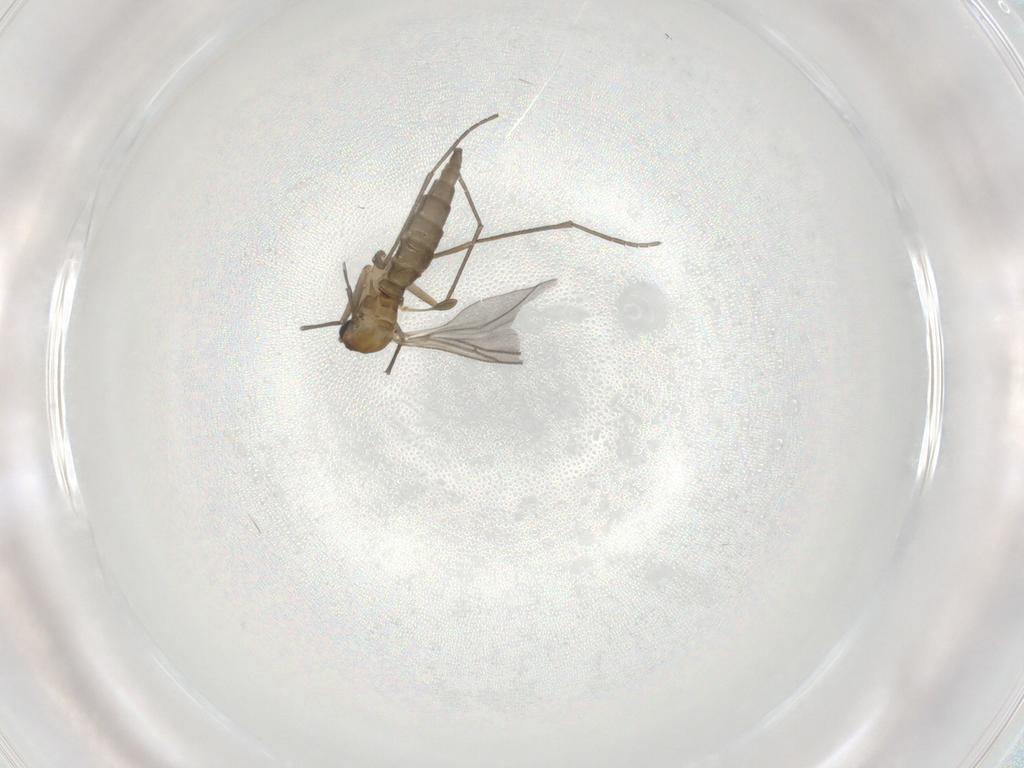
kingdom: Animalia
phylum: Arthropoda
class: Insecta
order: Diptera
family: Sciaridae
